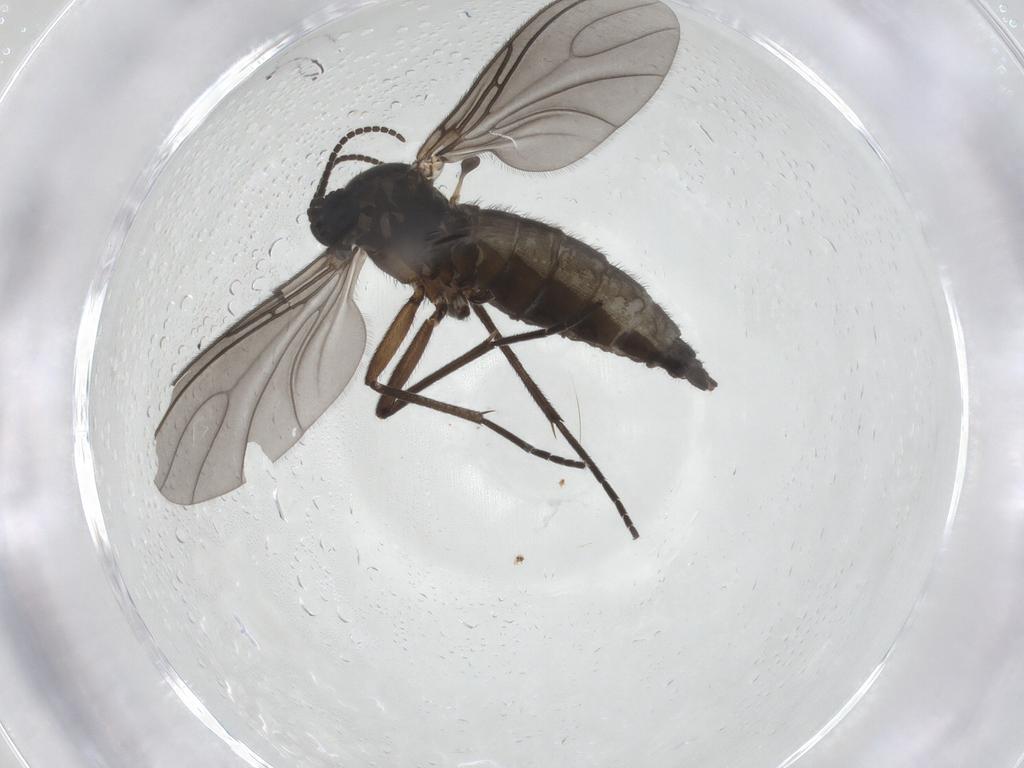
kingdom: Animalia
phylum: Arthropoda
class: Insecta
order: Diptera
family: Sciaridae
